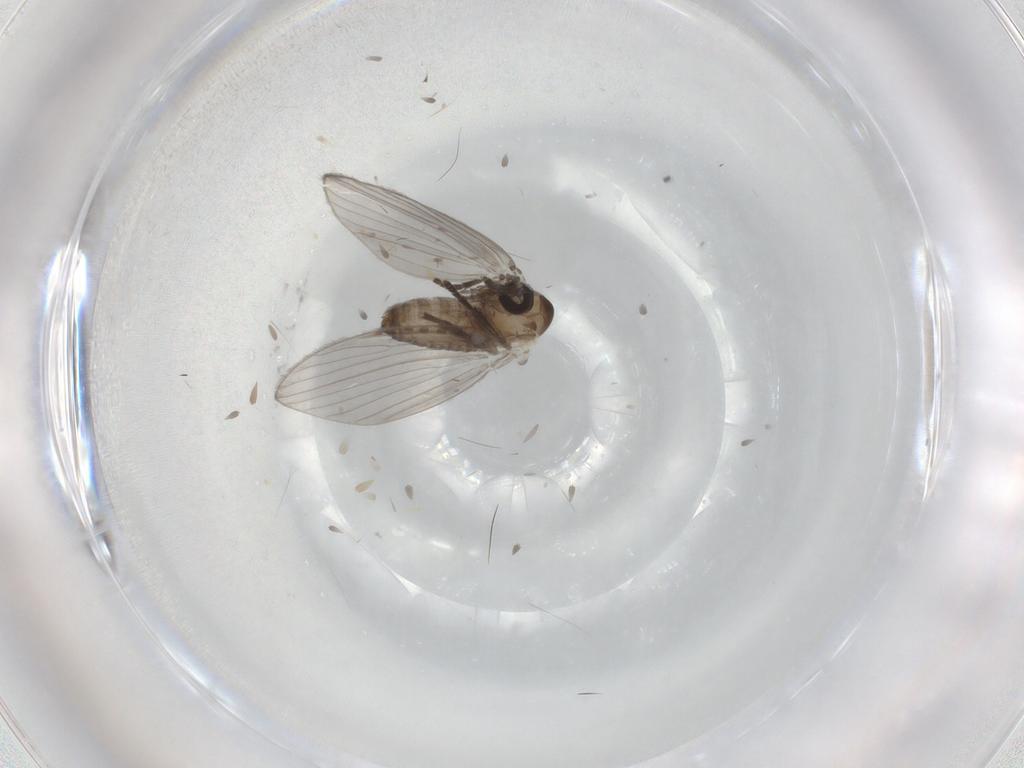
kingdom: Animalia
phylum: Arthropoda
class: Insecta
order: Diptera
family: Psychodidae
